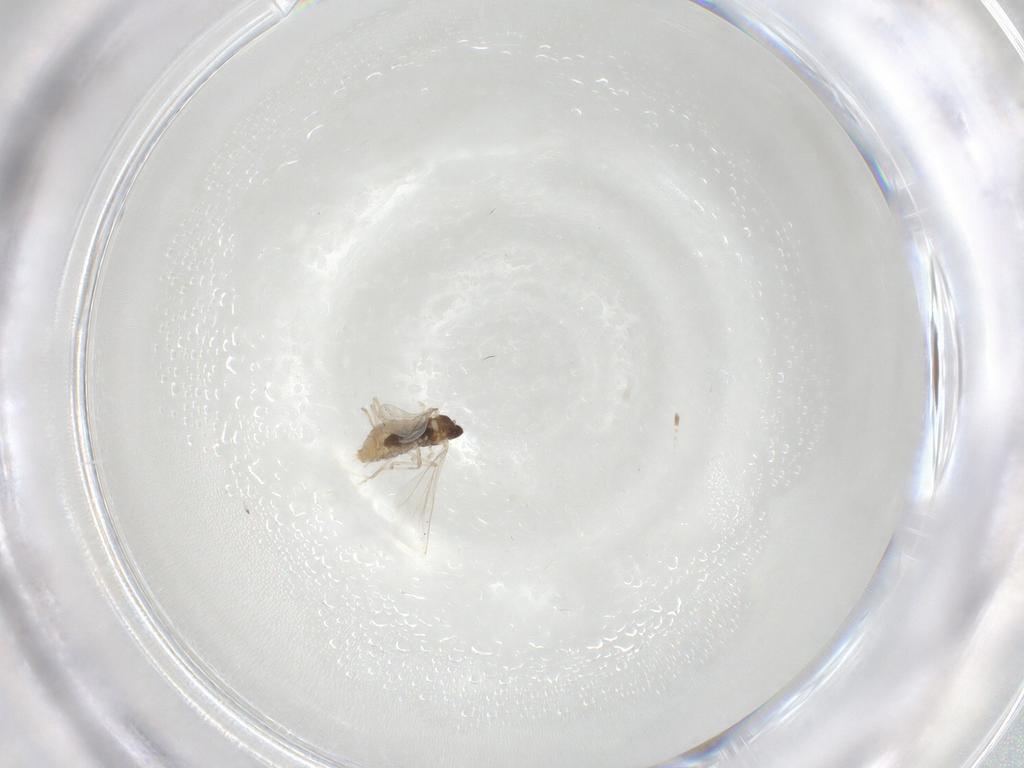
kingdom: Animalia
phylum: Arthropoda
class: Insecta
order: Diptera
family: Cecidomyiidae
